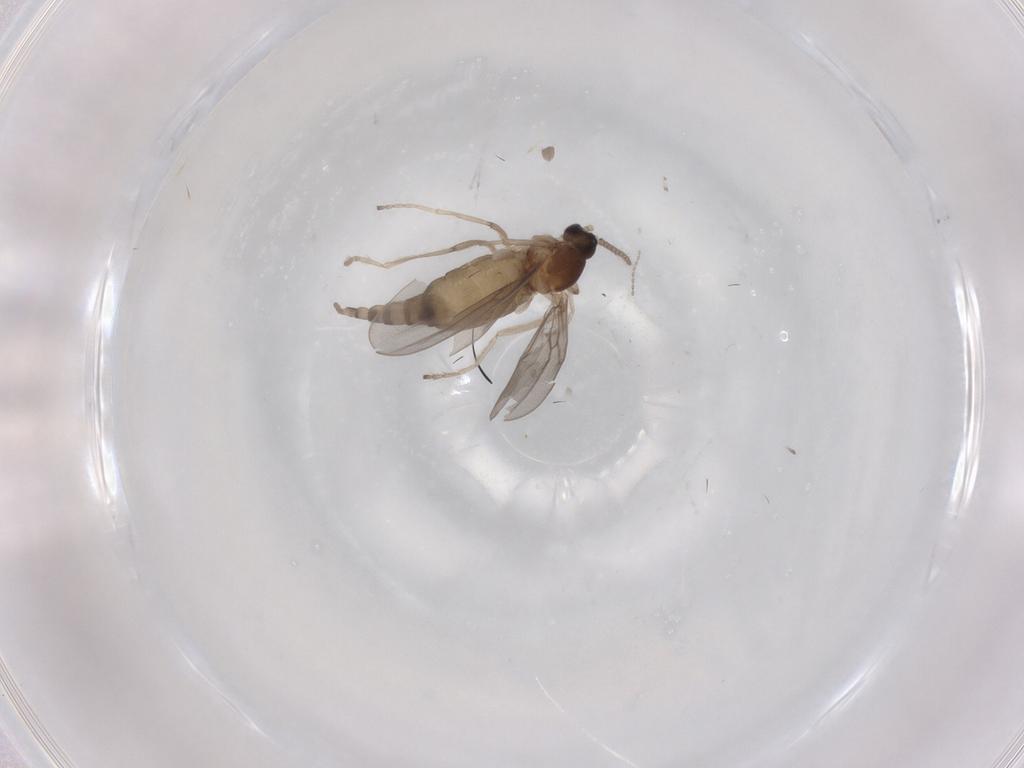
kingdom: Animalia
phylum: Arthropoda
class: Insecta
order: Diptera
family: Cecidomyiidae
